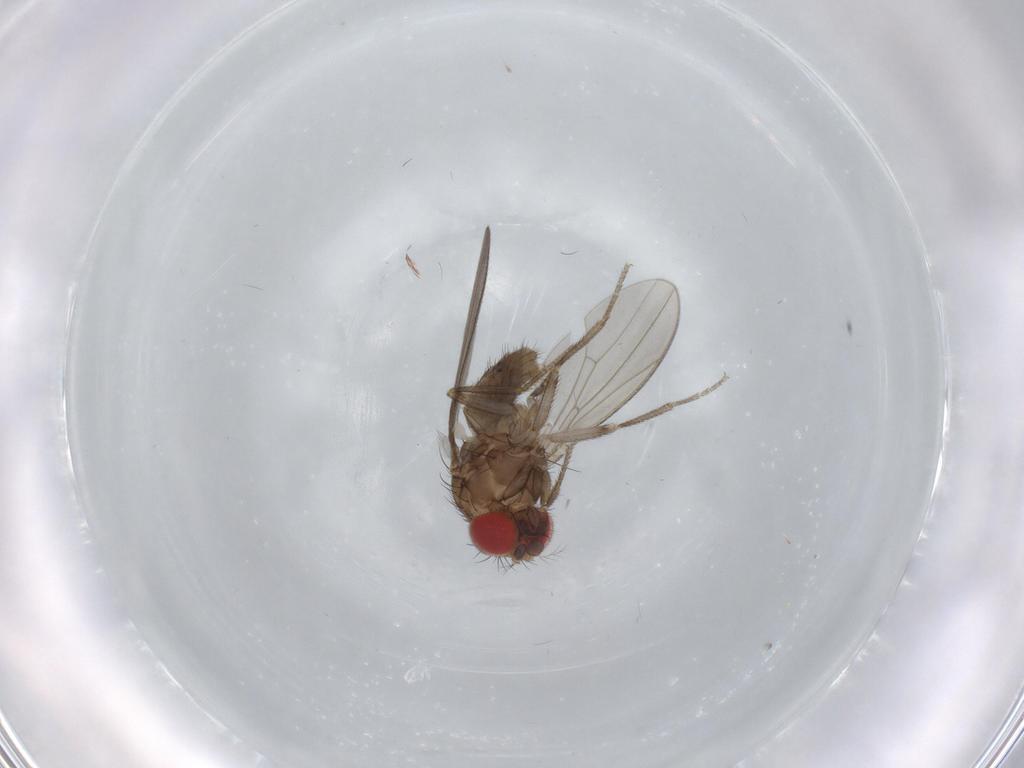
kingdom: Animalia
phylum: Arthropoda
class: Insecta
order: Diptera
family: Drosophilidae
